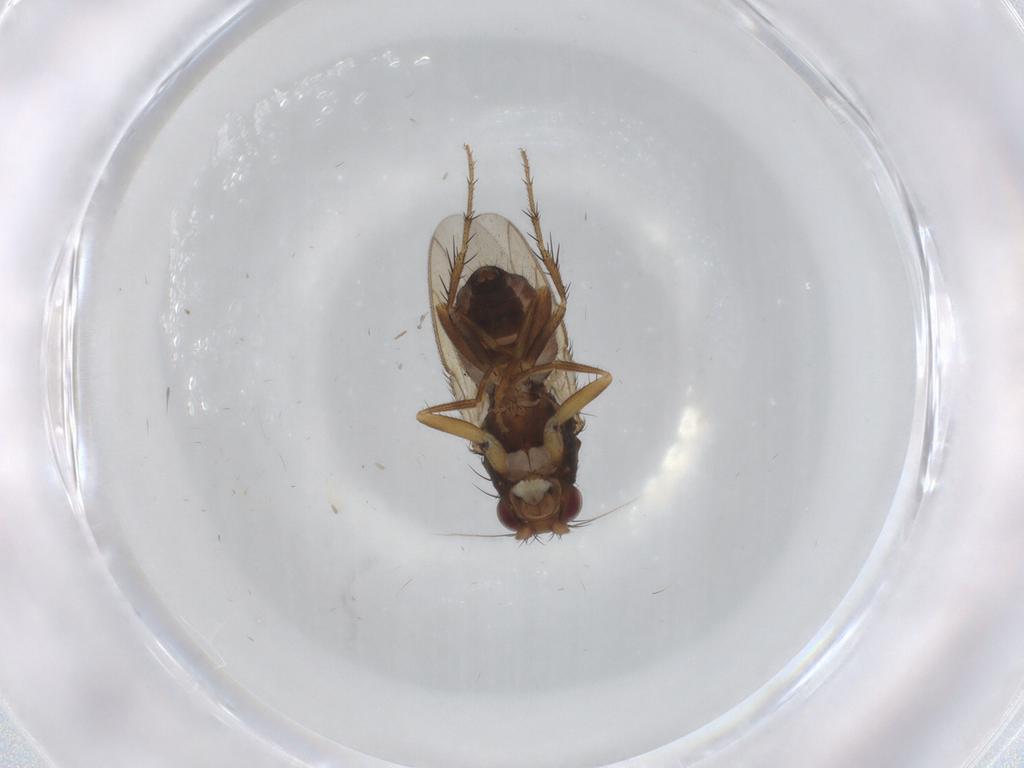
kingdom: Animalia
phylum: Arthropoda
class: Insecta
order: Diptera
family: Sphaeroceridae
